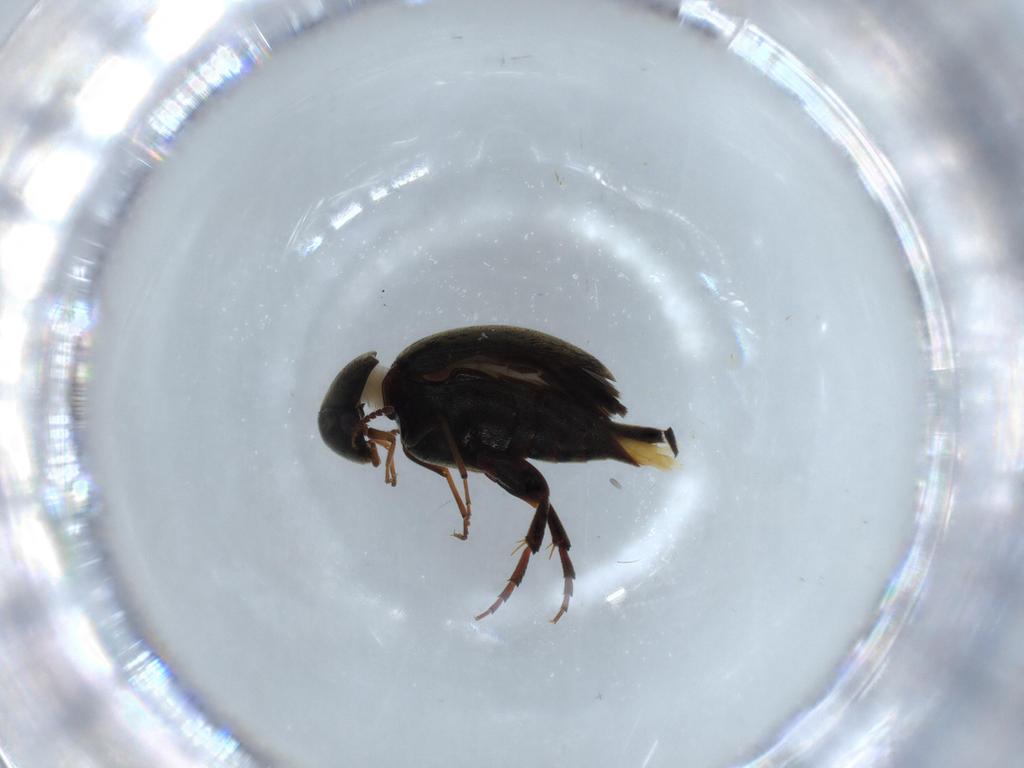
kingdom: Animalia
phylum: Arthropoda
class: Insecta
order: Coleoptera
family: Mordellidae
